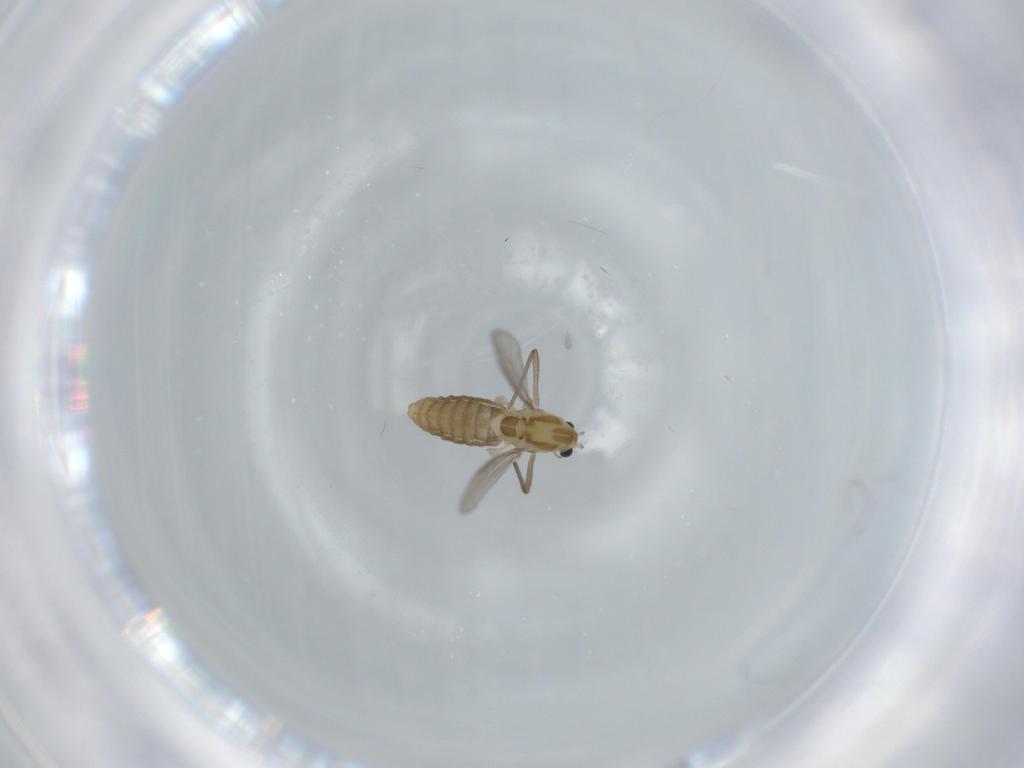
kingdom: Animalia
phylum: Arthropoda
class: Insecta
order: Diptera
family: Chironomidae
